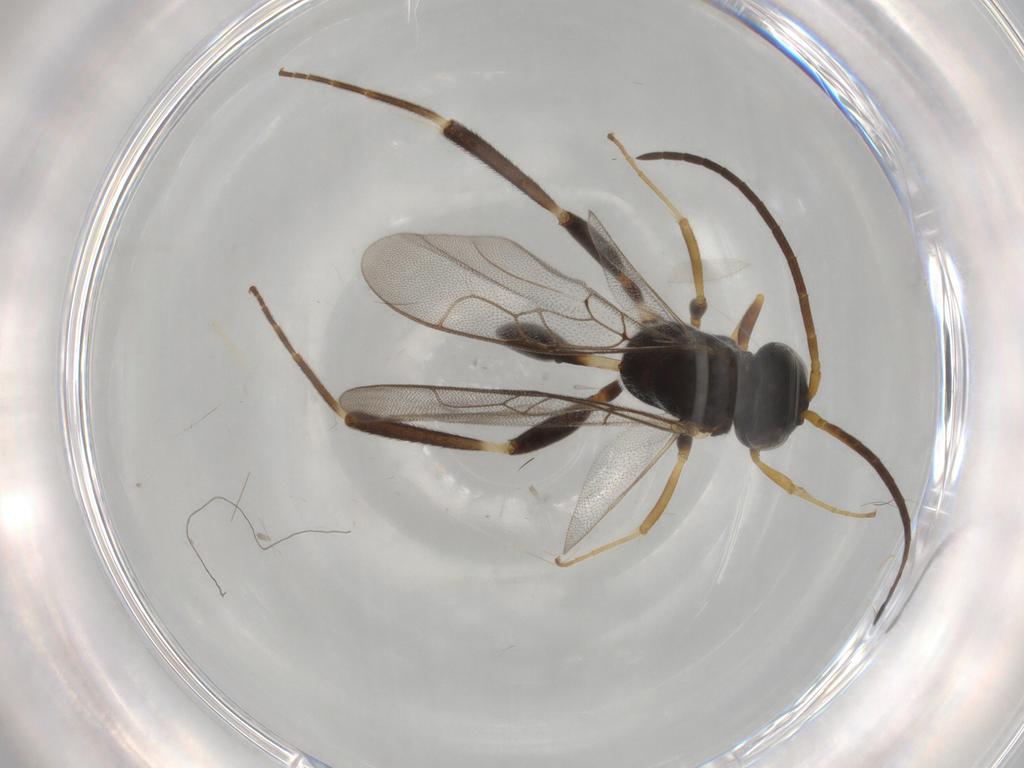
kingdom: Animalia
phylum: Arthropoda
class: Insecta
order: Hymenoptera
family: Evaniidae
